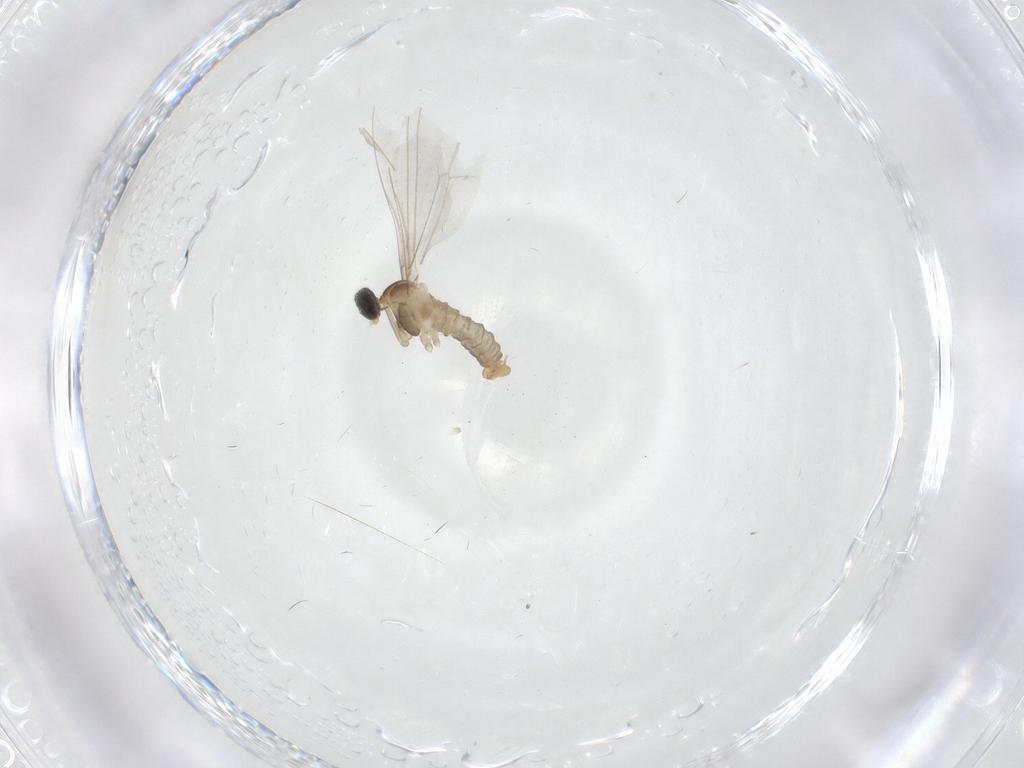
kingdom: Animalia
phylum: Arthropoda
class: Insecta
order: Diptera
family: Cecidomyiidae
